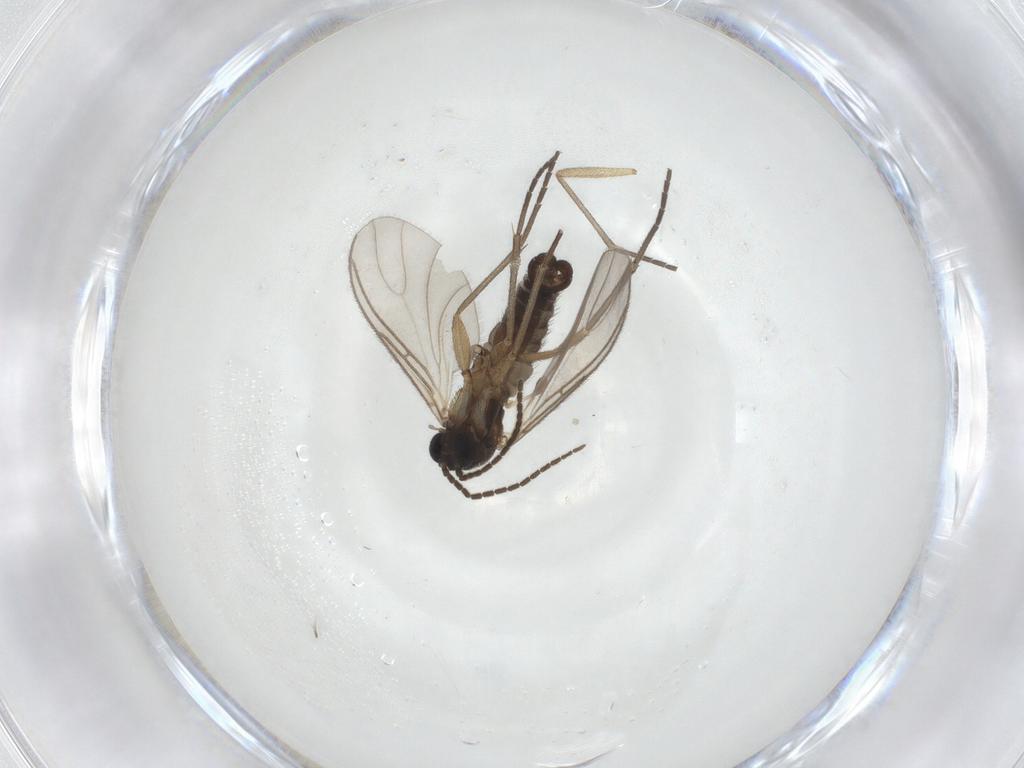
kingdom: Animalia
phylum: Arthropoda
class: Insecta
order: Diptera
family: Sciaridae
